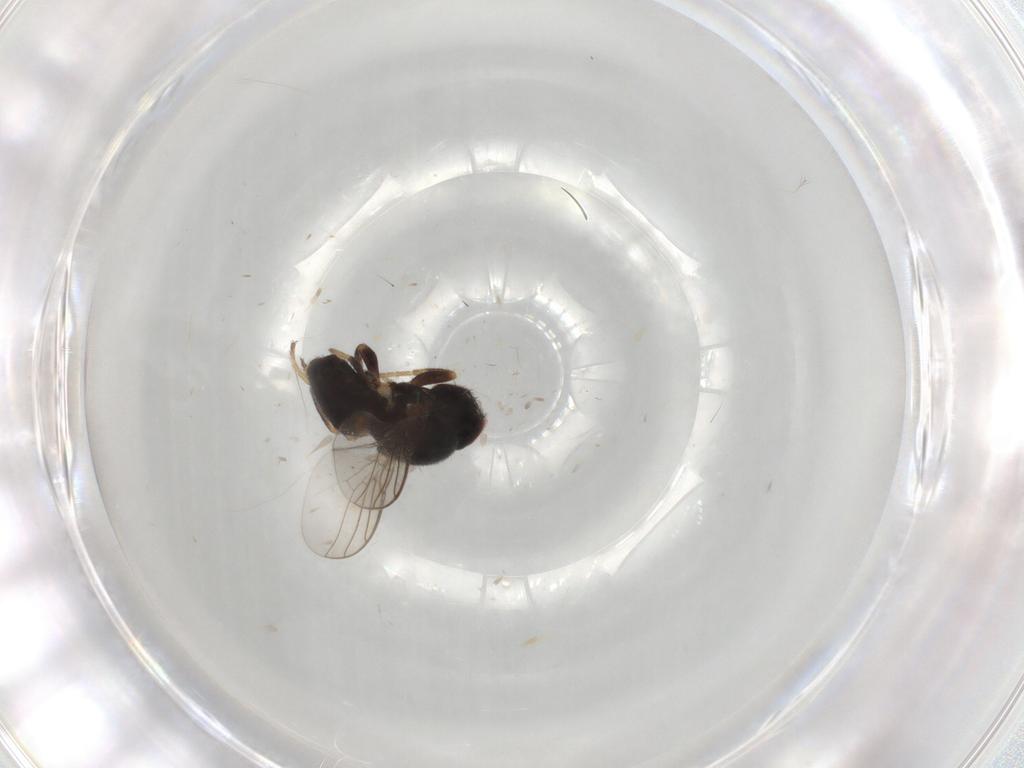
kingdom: Animalia
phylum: Arthropoda
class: Insecta
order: Diptera
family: Chloropidae
